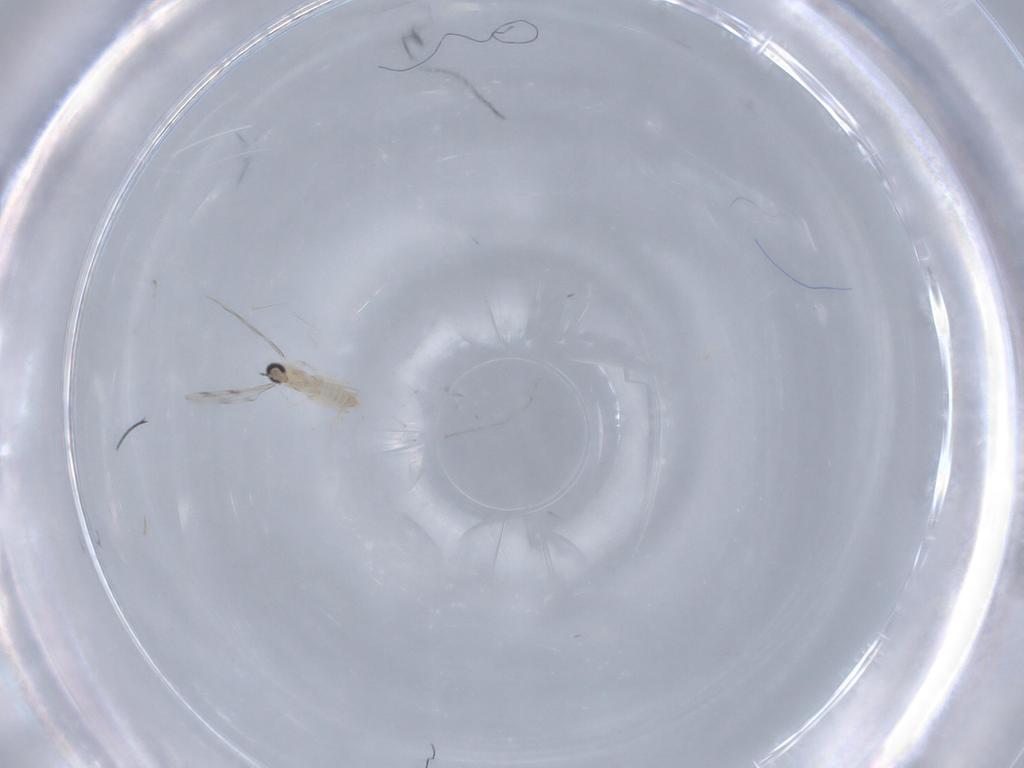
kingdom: Animalia
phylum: Arthropoda
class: Insecta
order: Diptera
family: Cecidomyiidae
